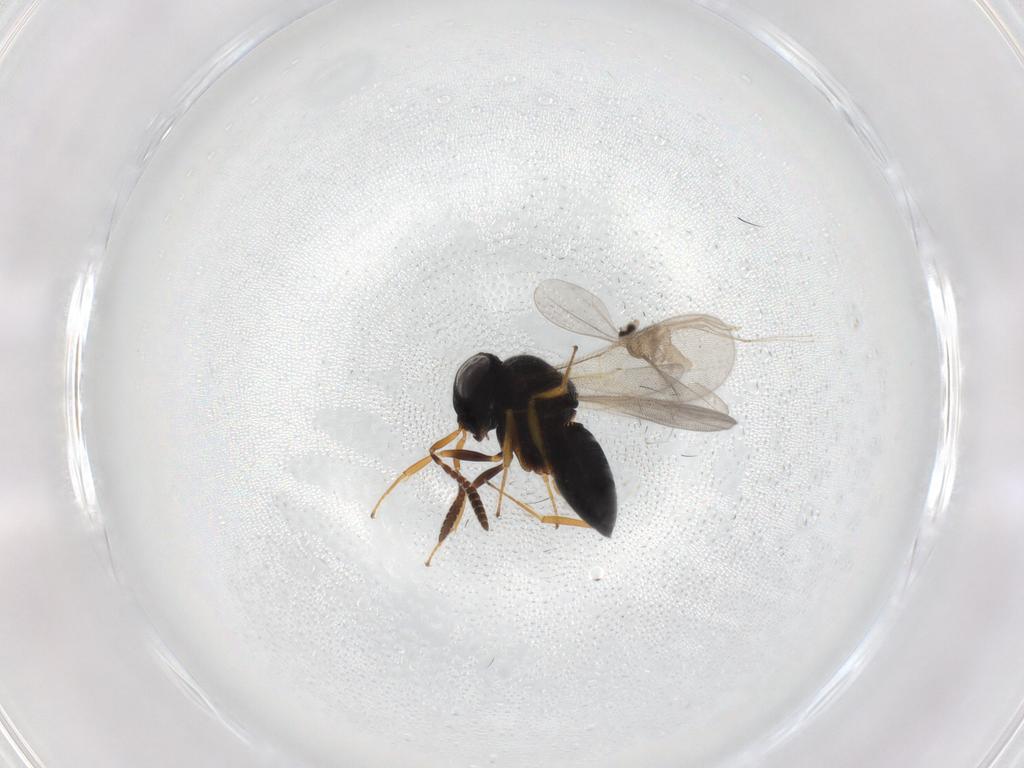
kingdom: Animalia
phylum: Arthropoda
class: Insecta
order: Hymenoptera
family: Scelionidae
